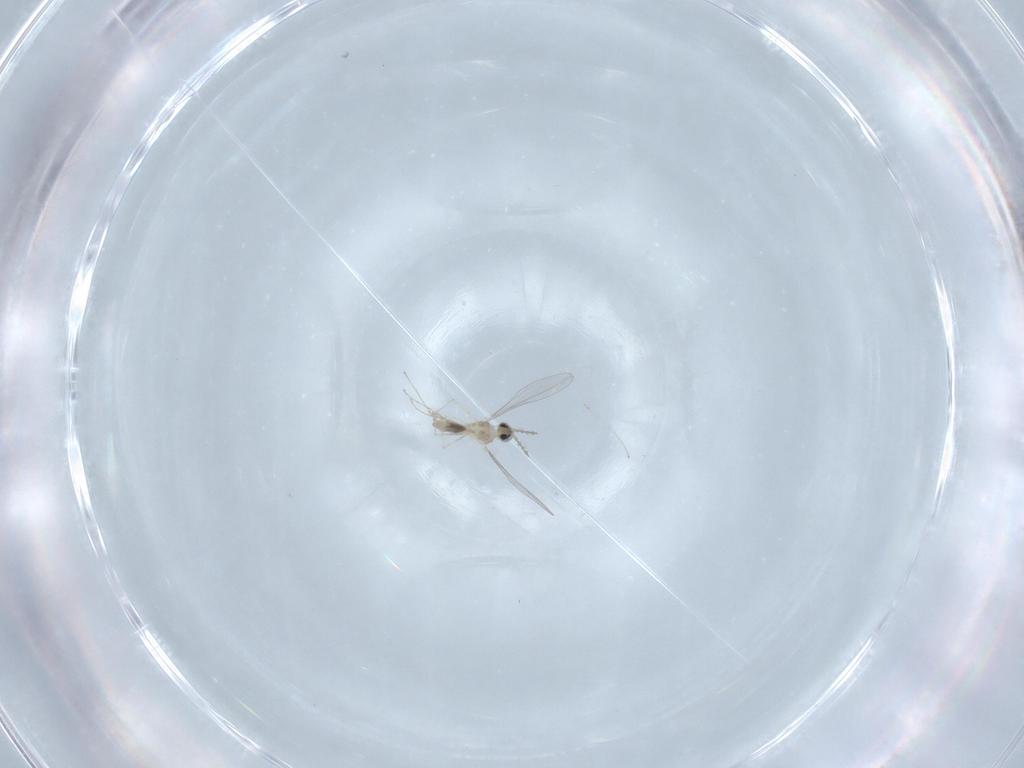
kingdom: Animalia
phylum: Arthropoda
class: Insecta
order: Diptera
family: Cecidomyiidae
